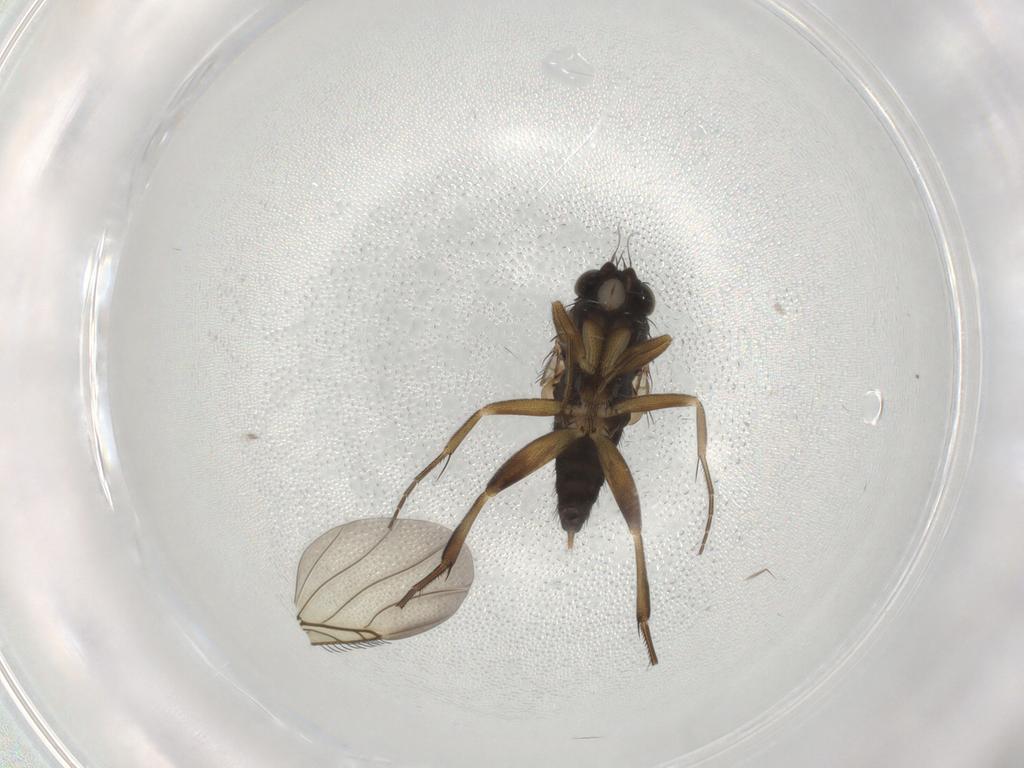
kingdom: Animalia
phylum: Arthropoda
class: Insecta
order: Diptera
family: Phoridae
